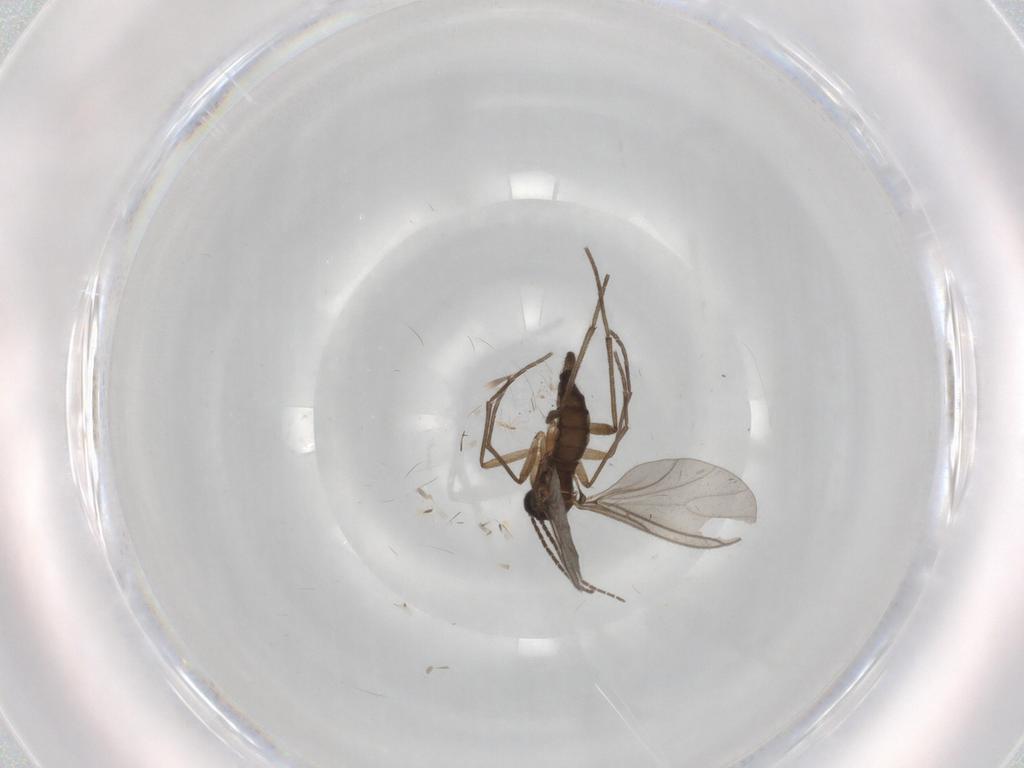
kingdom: Animalia
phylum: Arthropoda
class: Insecta
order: Diptera
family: Sciaridae
